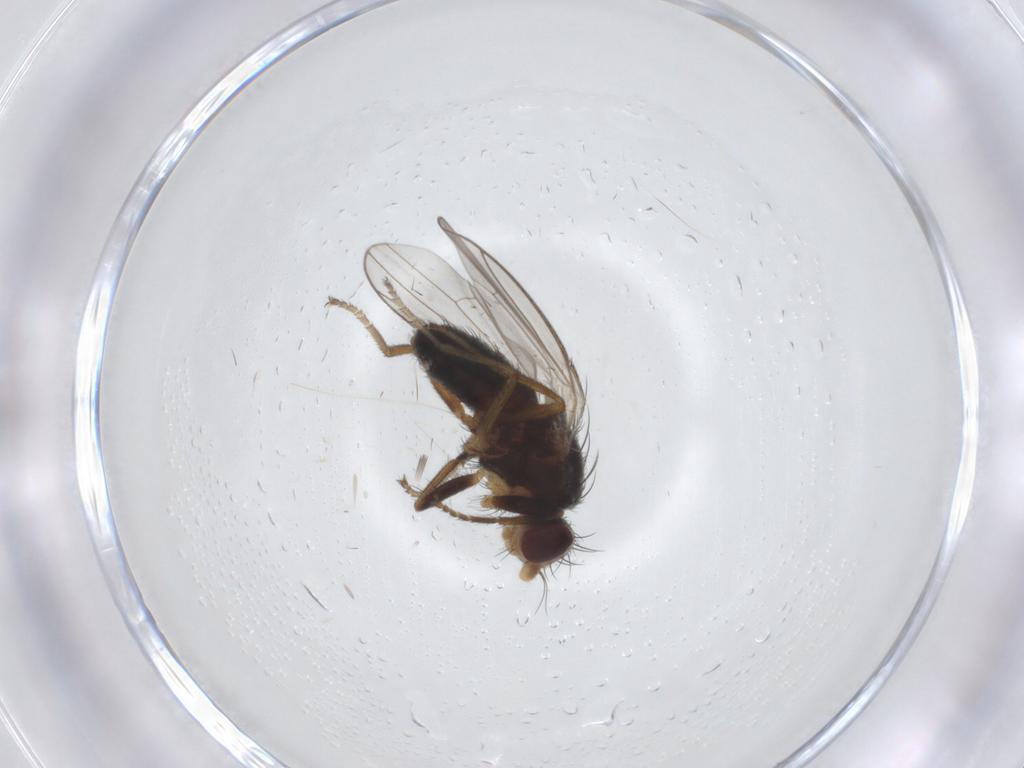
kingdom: Animalia
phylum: Arthropoda
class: Insecta
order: Diptera
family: Heleomyzidae
